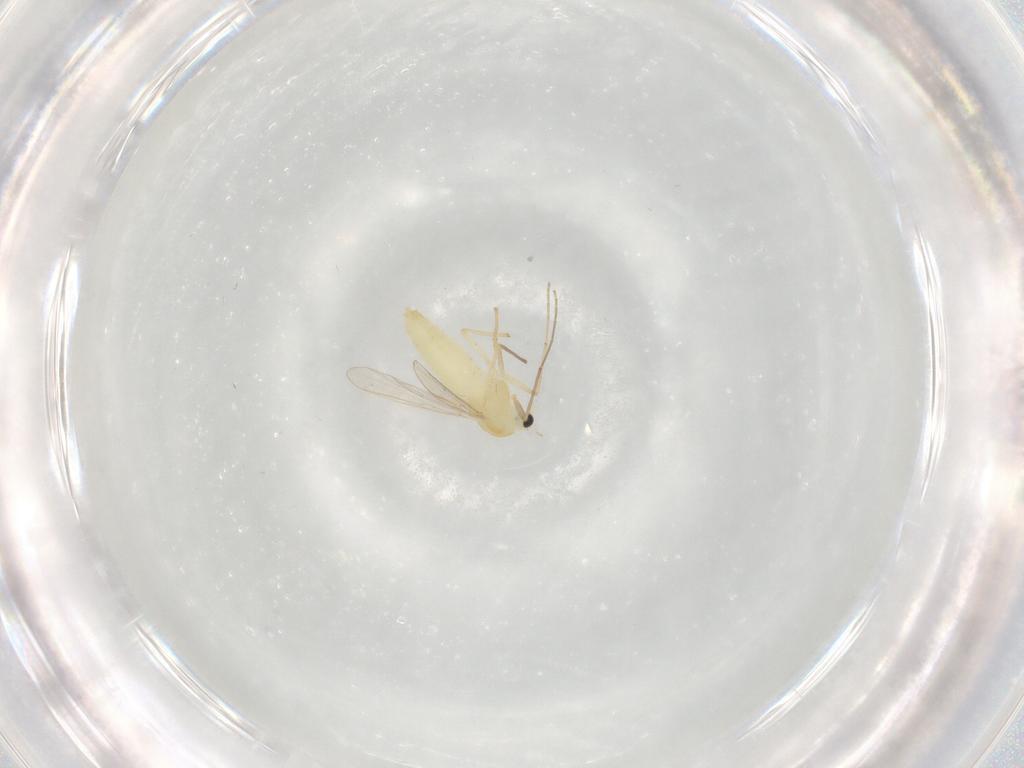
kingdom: Animalia
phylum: Arthropoda
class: Insecta
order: Diptera
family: Chironomidae
